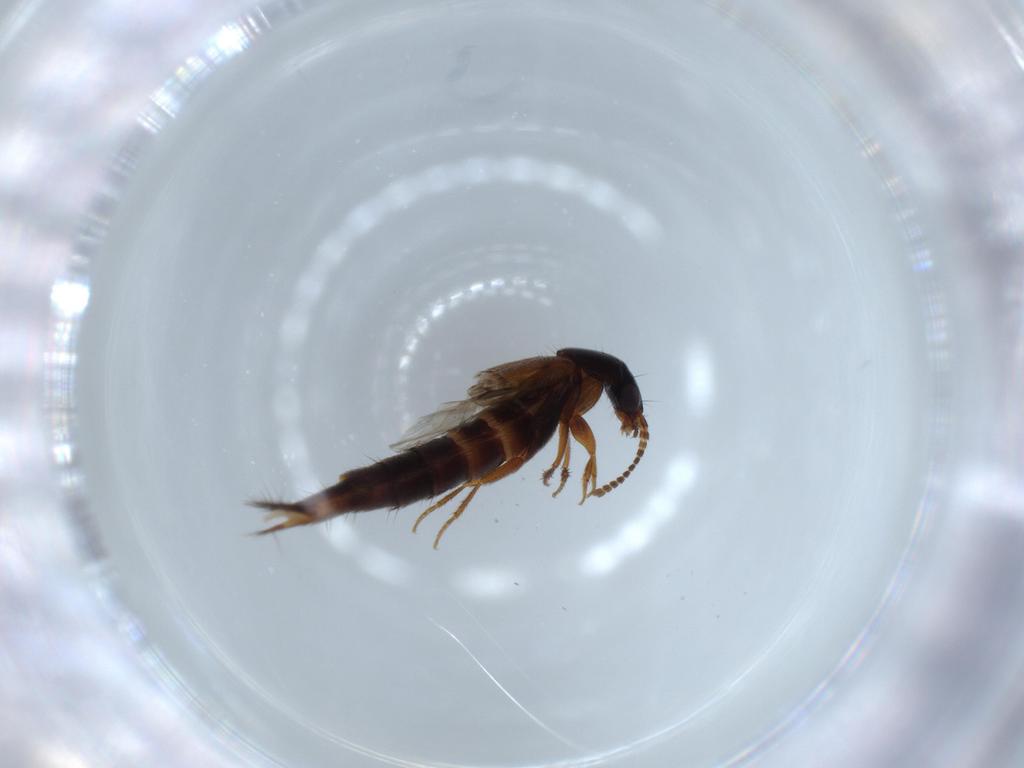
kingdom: Animalia
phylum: Arthropoda
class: Insecta
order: Coleoptera
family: Staphylinidae
